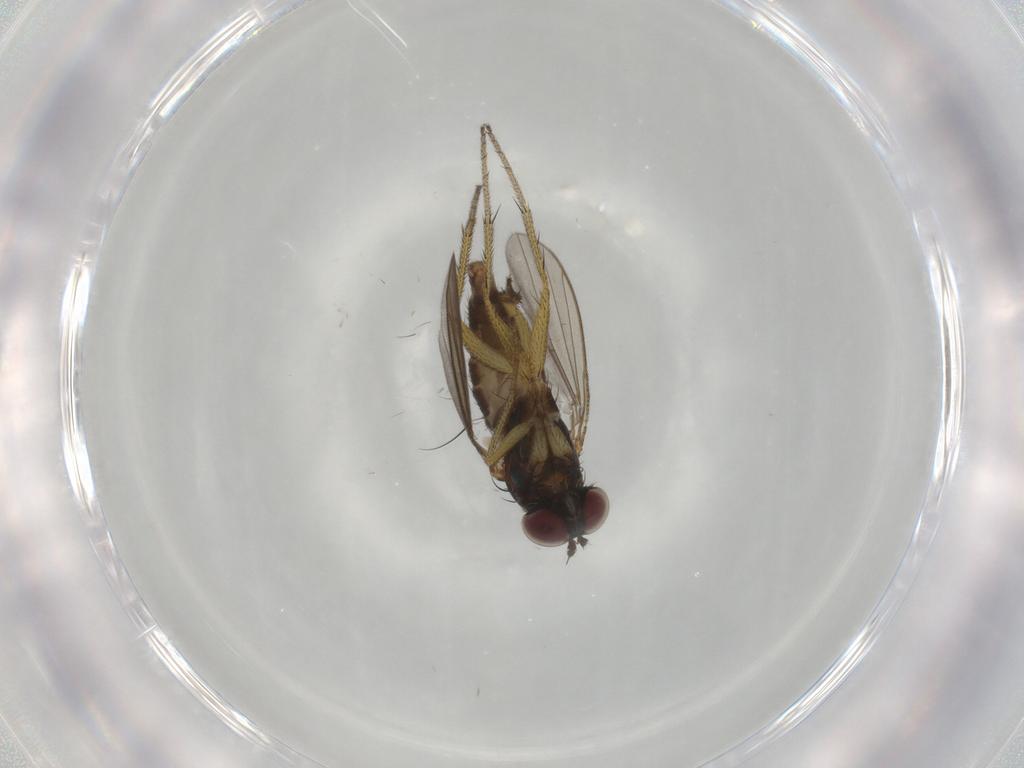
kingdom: Animalia
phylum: Arthropoda
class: Insecta
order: Diptera
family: Dolichopodidae
